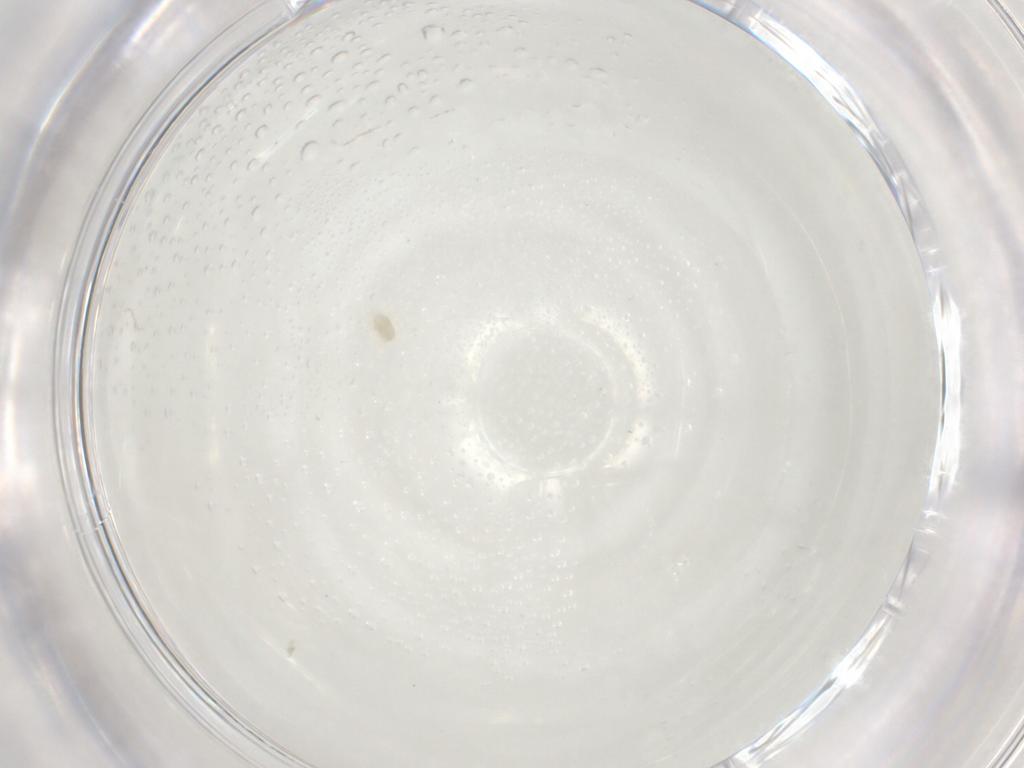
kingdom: Animalia
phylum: Arthropoda
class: Arachnida
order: Trombidiformes
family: Eupodidae
